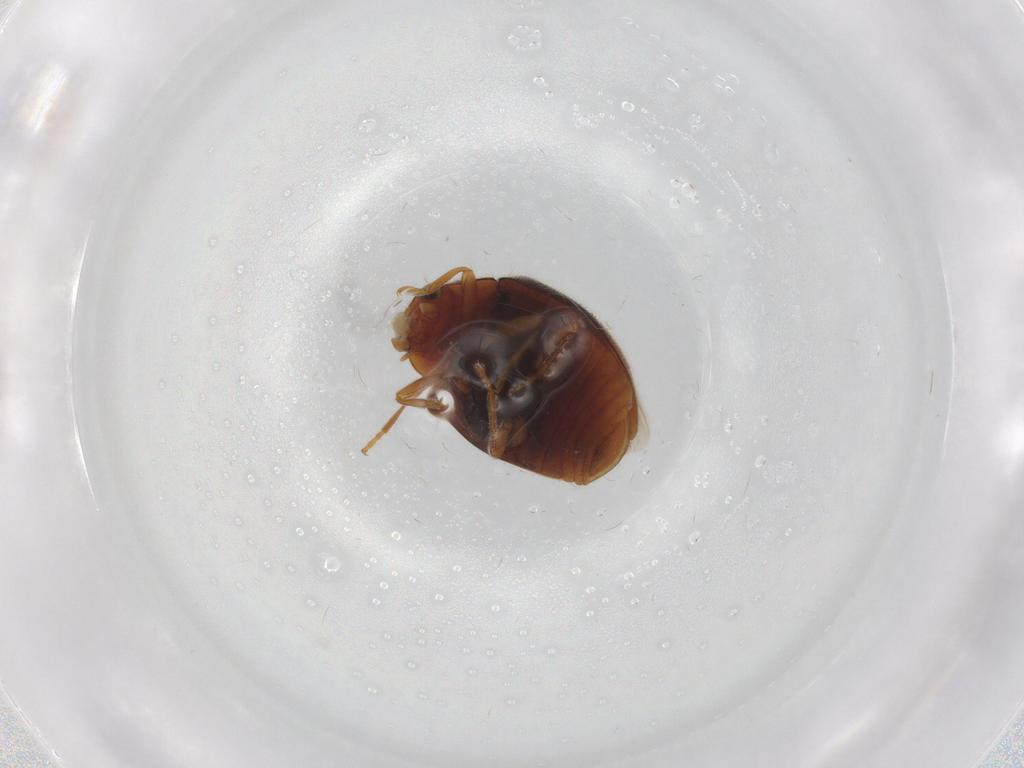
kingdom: Animalia
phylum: Arthropoda
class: Insecta
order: Coleoptera
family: Coccinellidae
